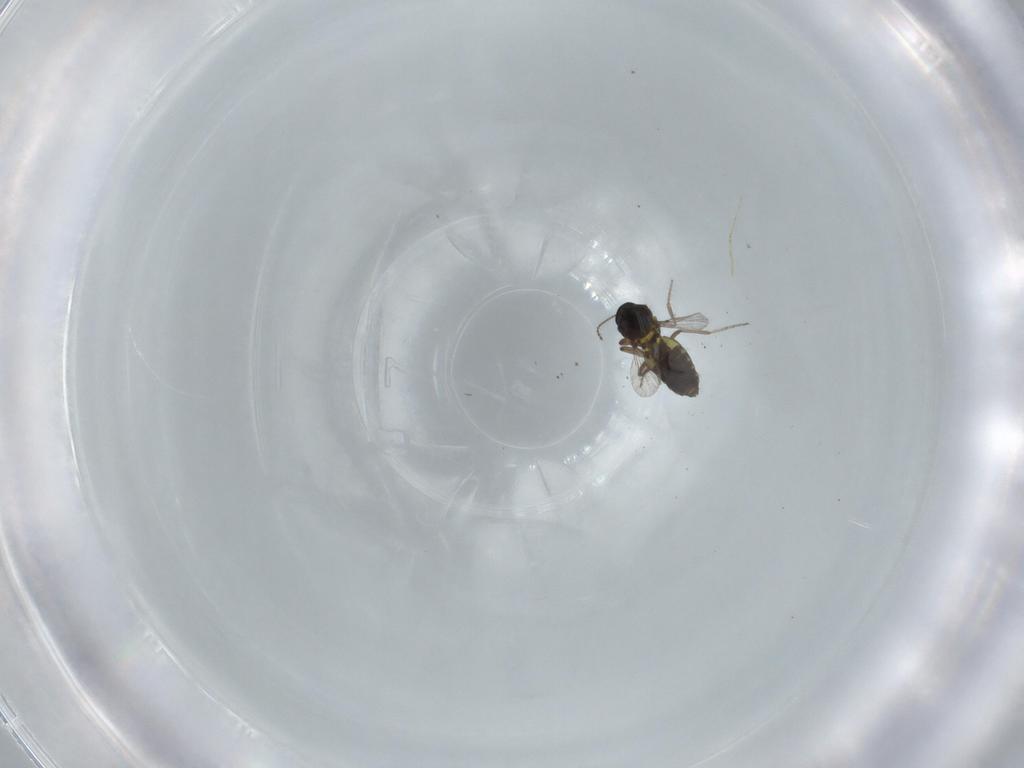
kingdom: Animalia
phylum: Arthropoda
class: Insecta
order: Diptera
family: Ceratopogonidae
